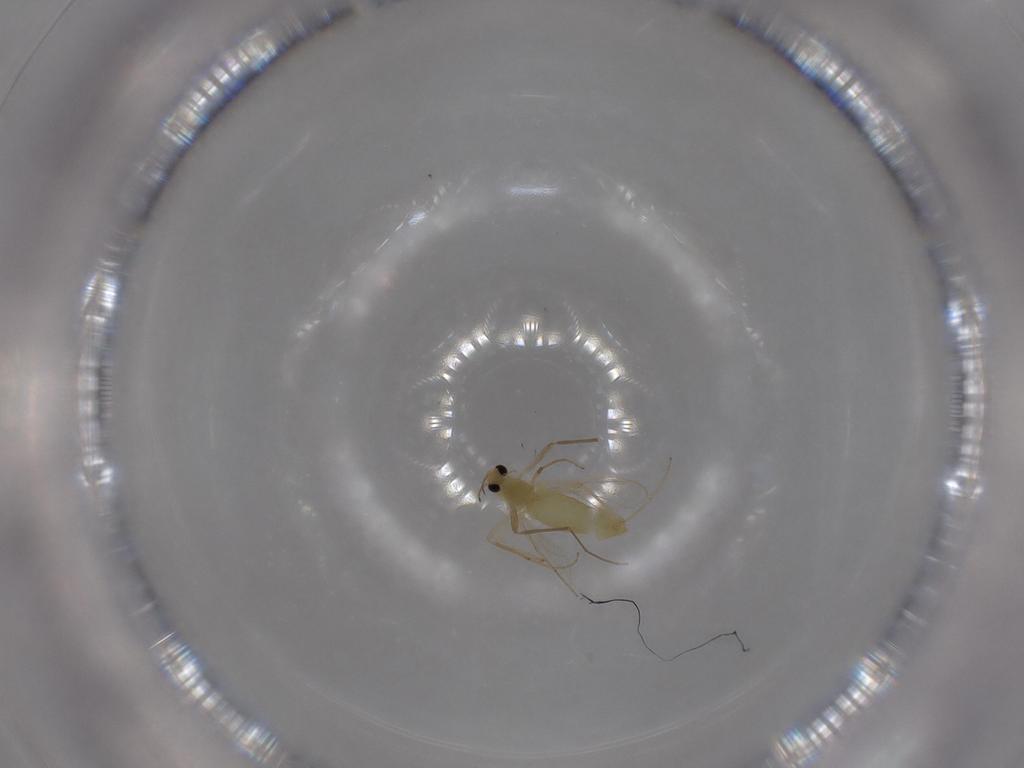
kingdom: Animalia
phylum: Arthropoda
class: Insecta
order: Diptera
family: Chironomidae
